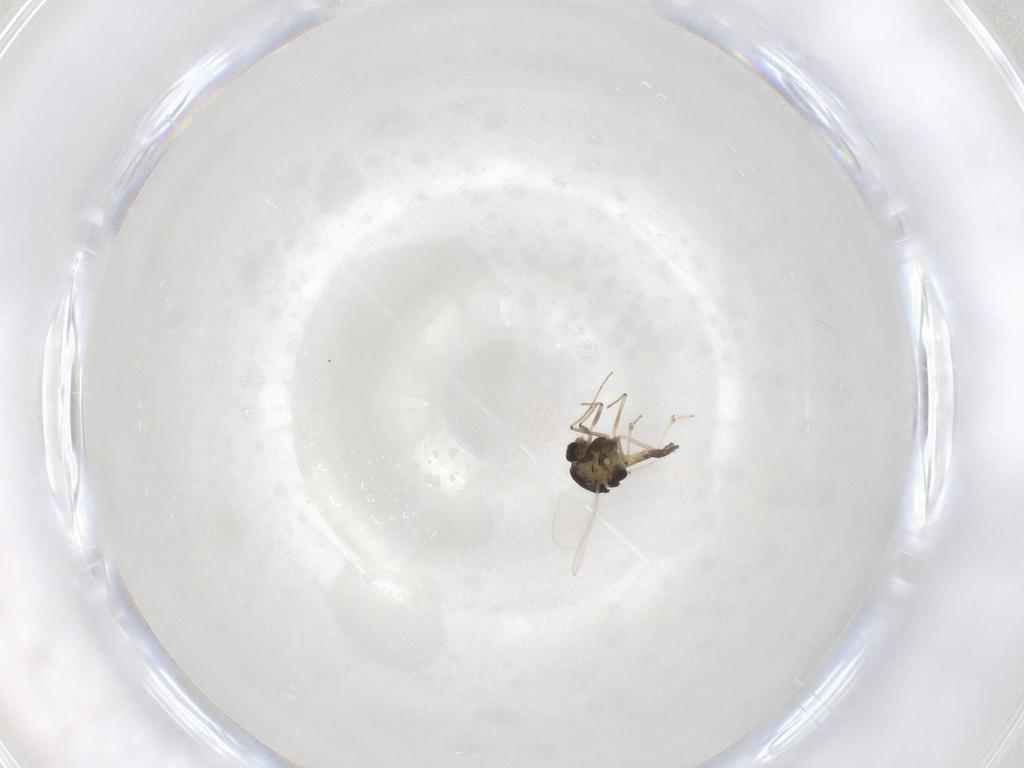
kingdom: Animalia
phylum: Arthropoda
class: Insecta
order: Diptera
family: Chironomidae
